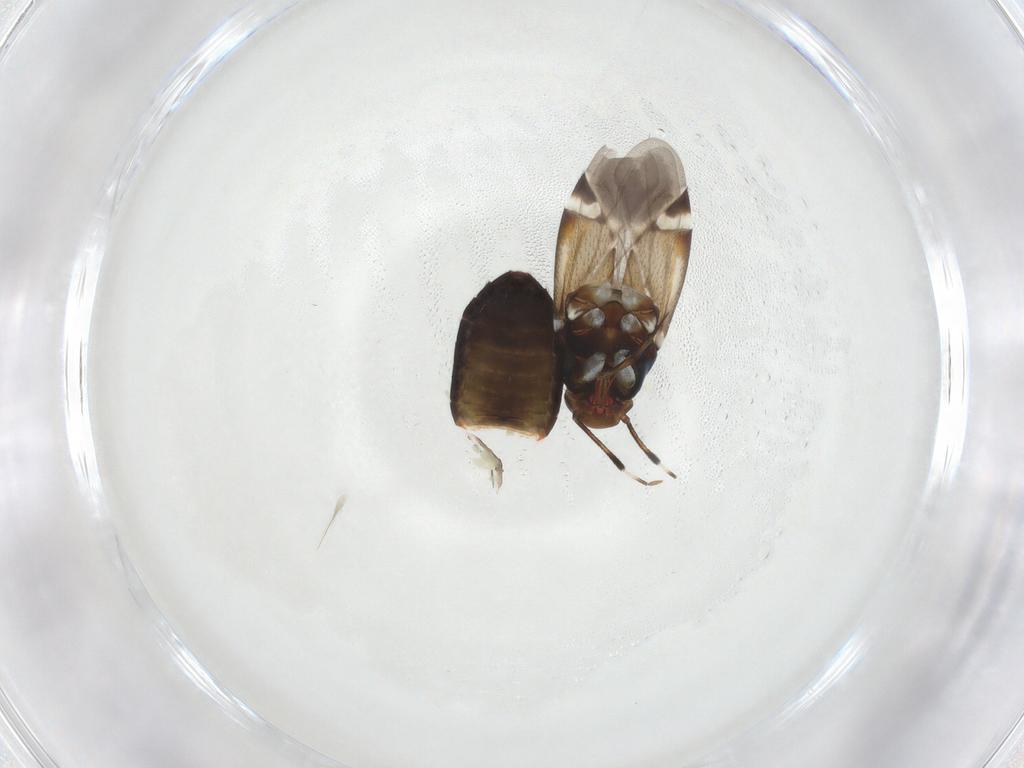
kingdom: Animalia
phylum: Arthropoda
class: Insecta
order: Hemiptera
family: Miridae
